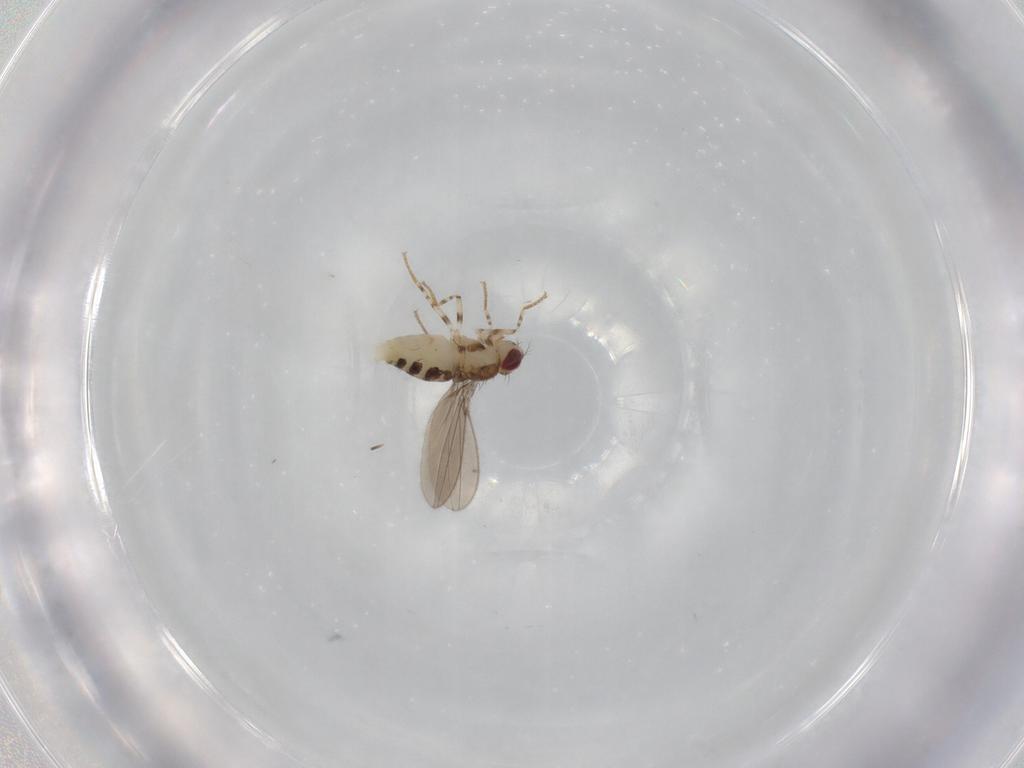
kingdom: Animalia
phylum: Arthropoda
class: Insecta
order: Diptera
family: Asteiidae
